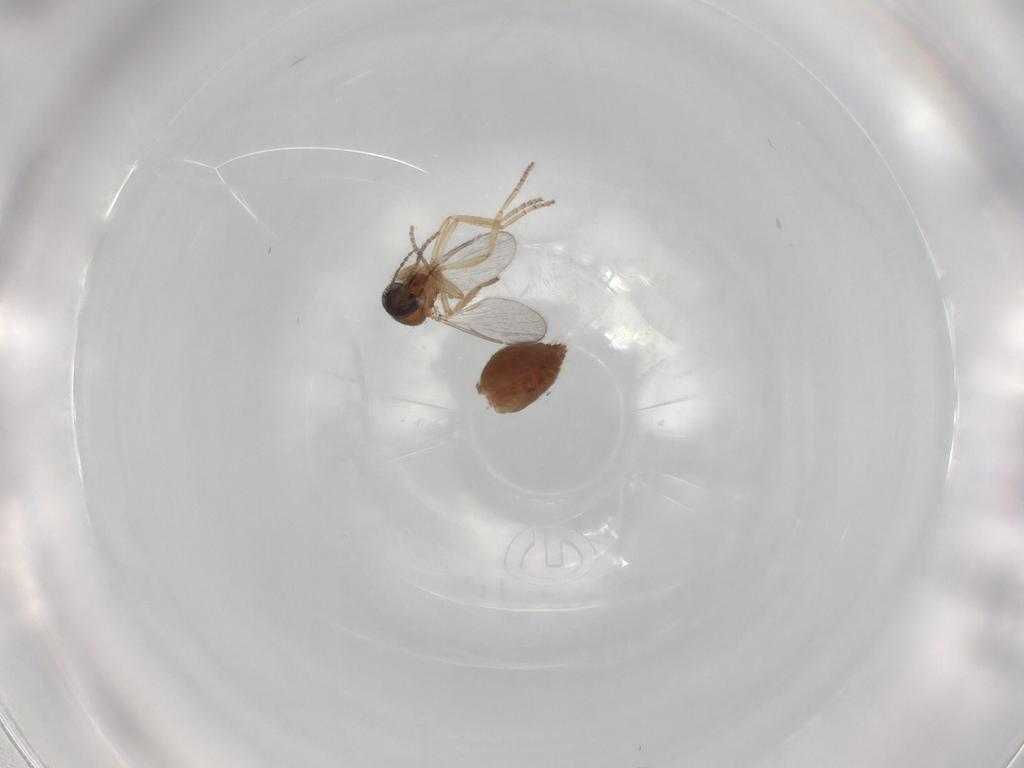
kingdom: Animalia
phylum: Arthropoda
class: Insecta
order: Diptera
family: Ceratopogonidae
